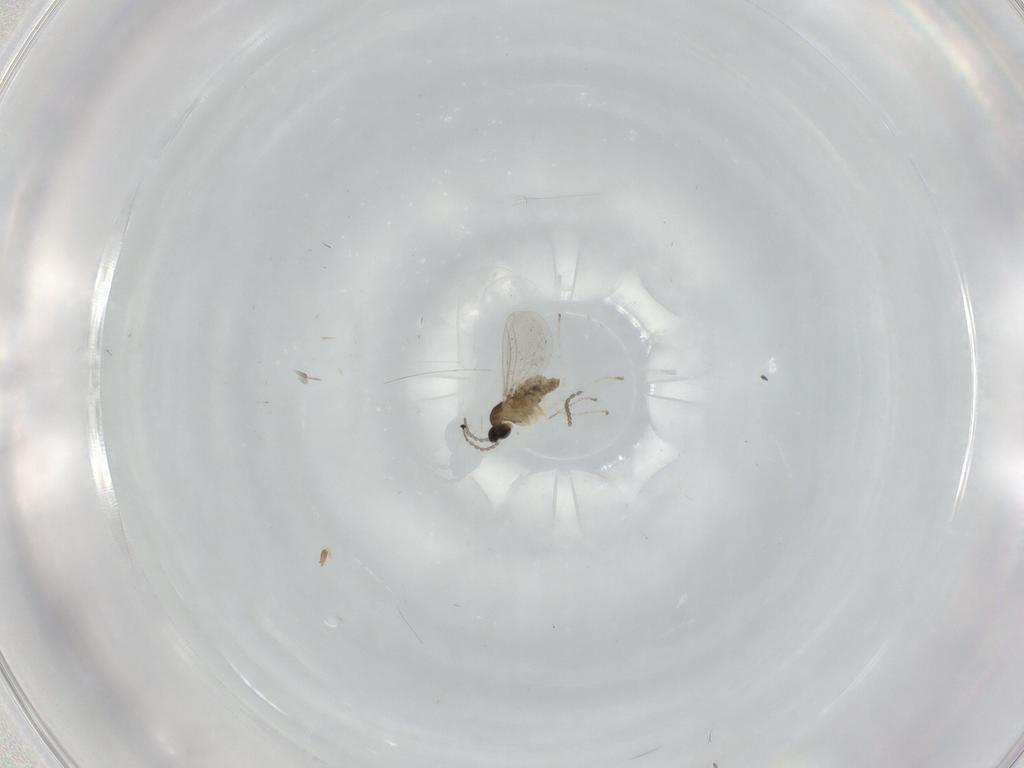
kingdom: Animalia
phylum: Arthropoda
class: Insecta
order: Diptera
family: Cecidomyiidae
